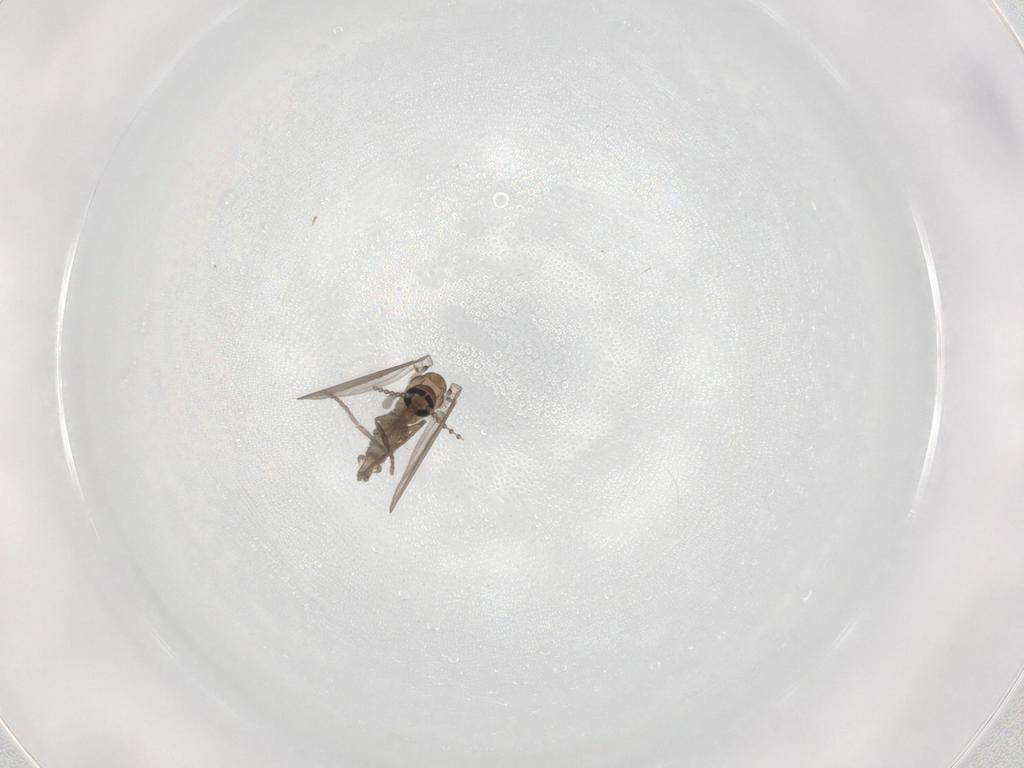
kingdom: Animalia
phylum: Arthropoda
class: Insecta
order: Diptera
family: Psychodidae
